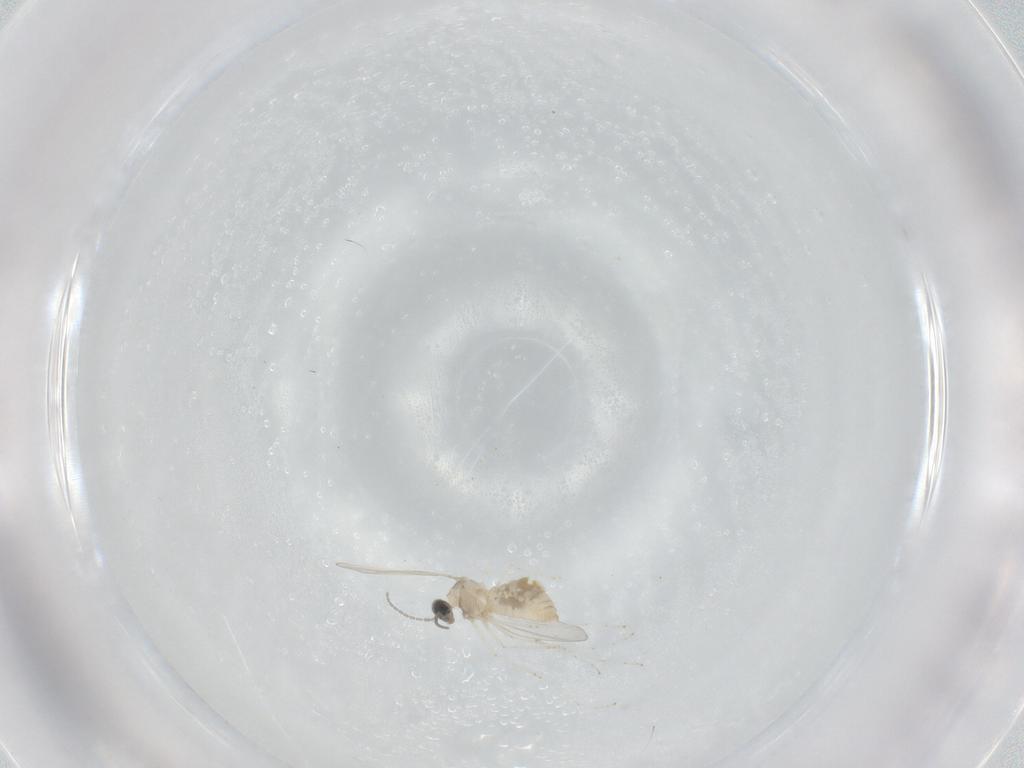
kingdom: Animalia
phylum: Arthropoda
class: Insecta
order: Diptera
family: Cecidomyiidae
